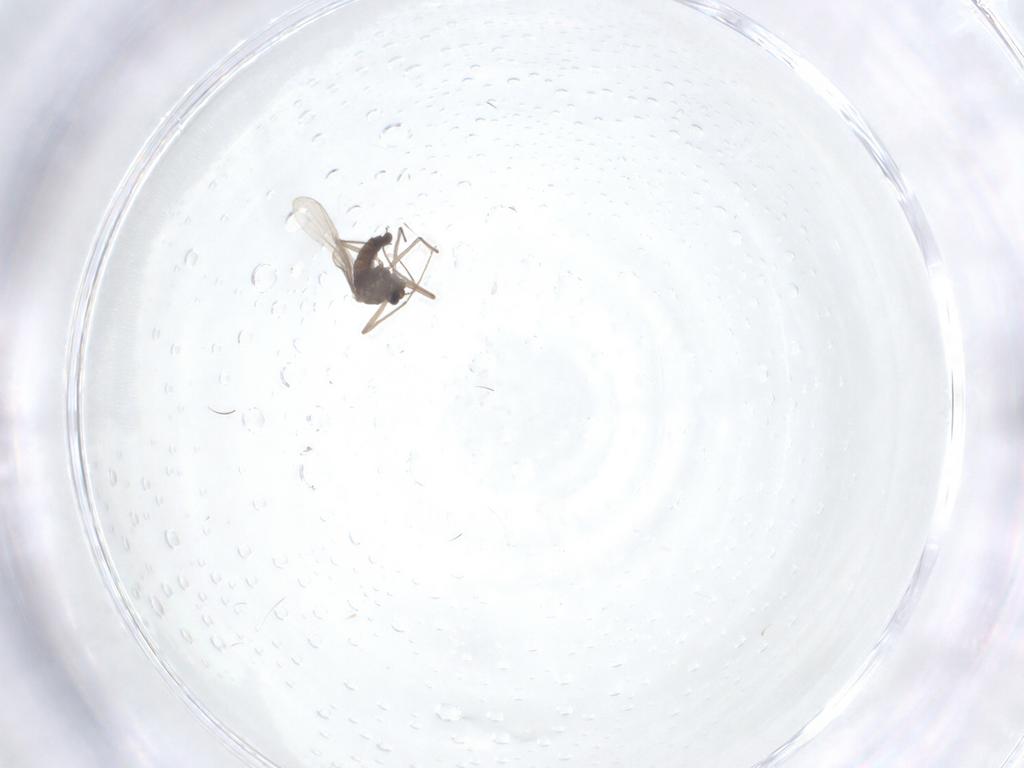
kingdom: Animalia
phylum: Arthropoda
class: Insecta
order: Diptera
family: Chironomidae
